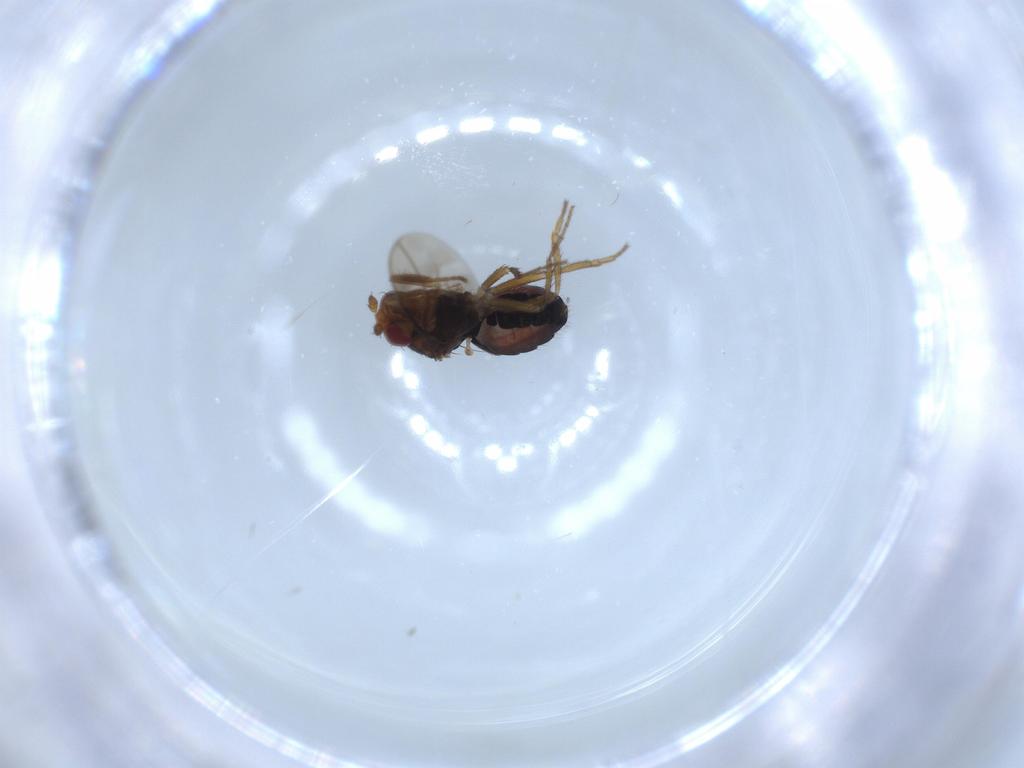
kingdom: Animalia
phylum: Arthropoda
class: Insecta
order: Diptera
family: Sphaeroceridae
